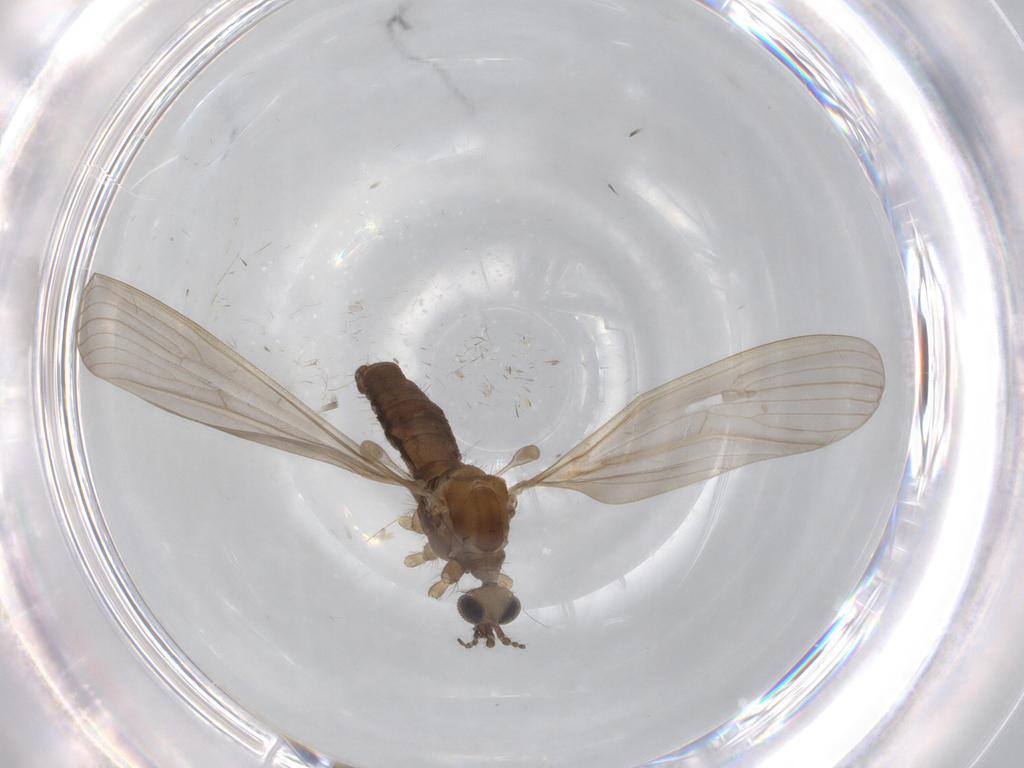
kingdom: Animalia
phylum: Arthropoda
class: Insecta
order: Diptera
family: Limoniidae
